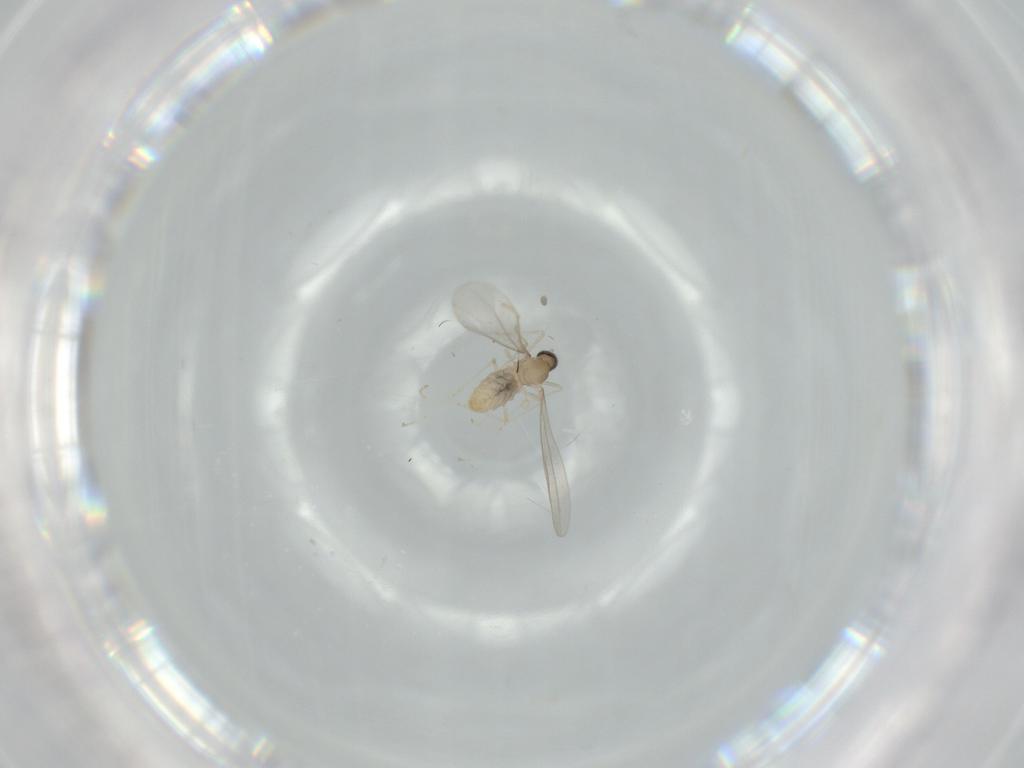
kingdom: Animalia
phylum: Arthropoda
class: Insecta
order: Diptera
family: Cecidomyiidae
